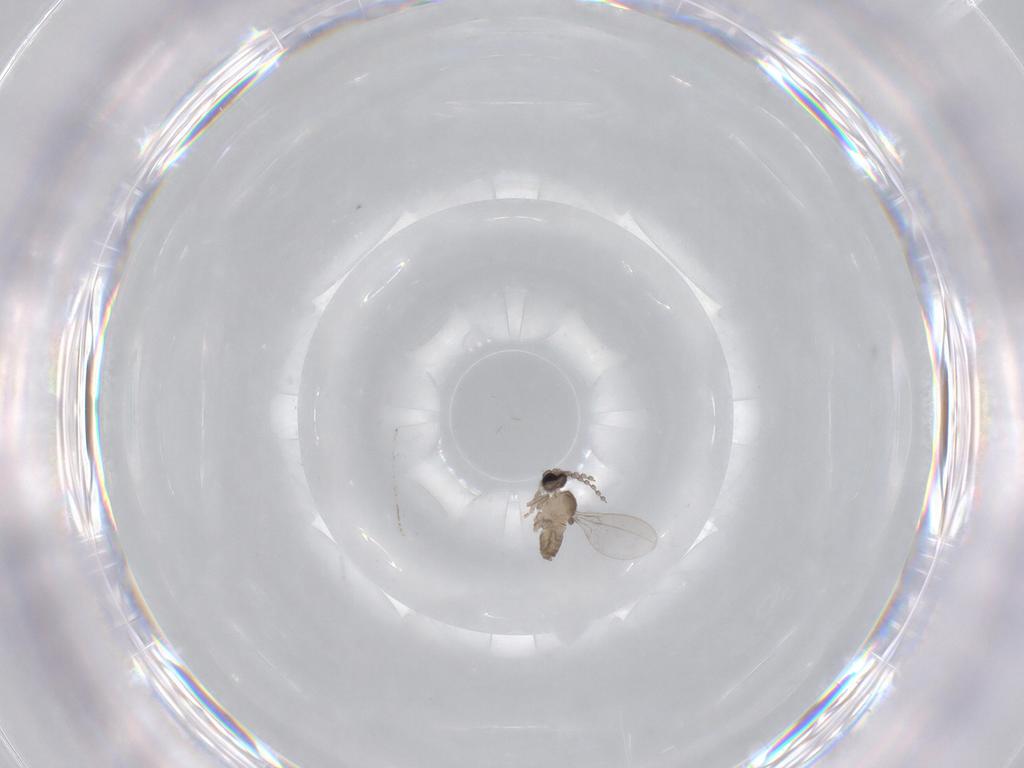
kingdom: Animalia
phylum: Arthropoda
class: Insecta
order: Diptera
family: Cecidomyiidae
